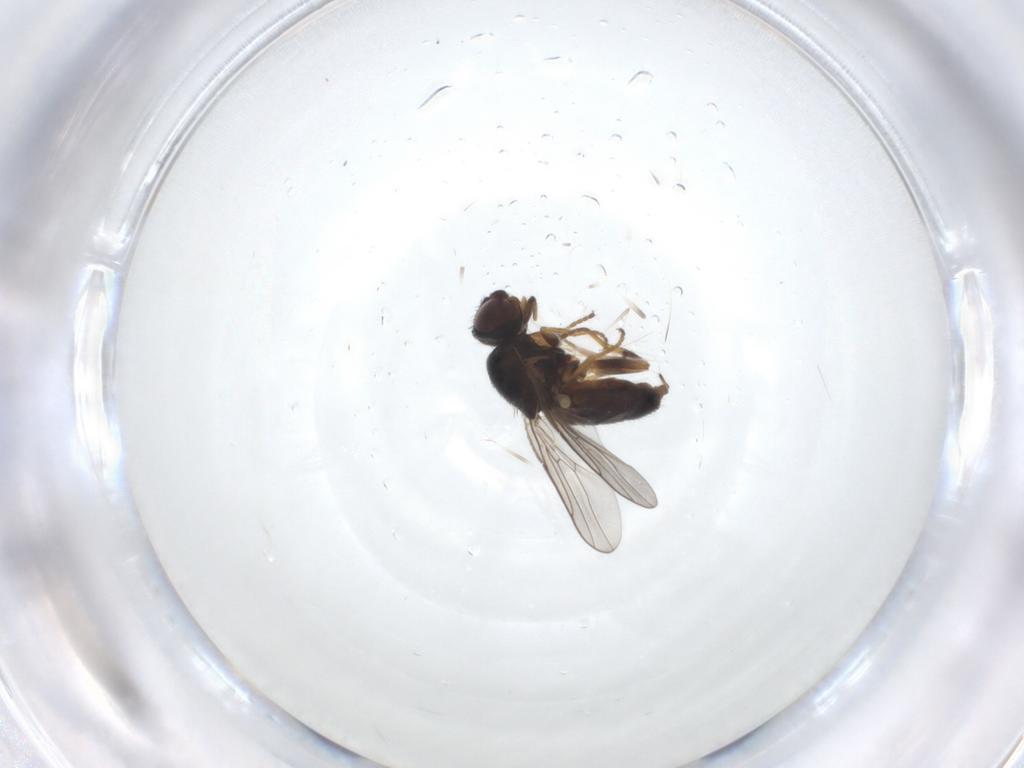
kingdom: Animalia
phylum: Arthropoda
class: Insecta
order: Diptera
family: Chloropidae
